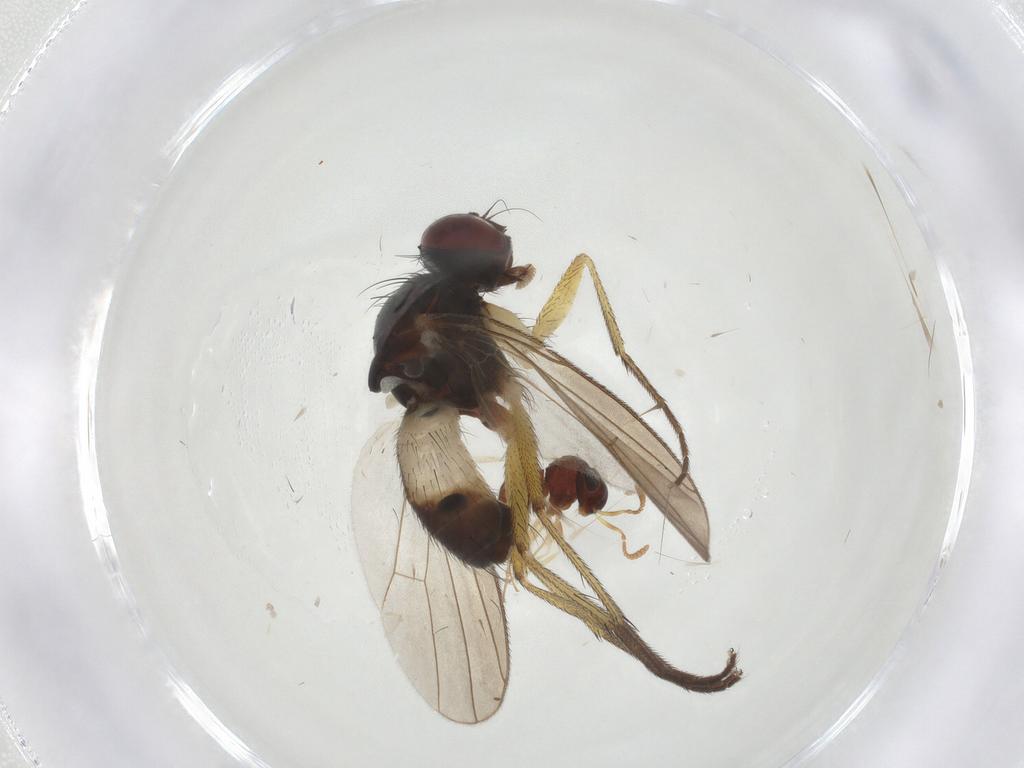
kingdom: Animalia
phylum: Arthropoda
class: Insecta
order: Diptera
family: Muscidae
